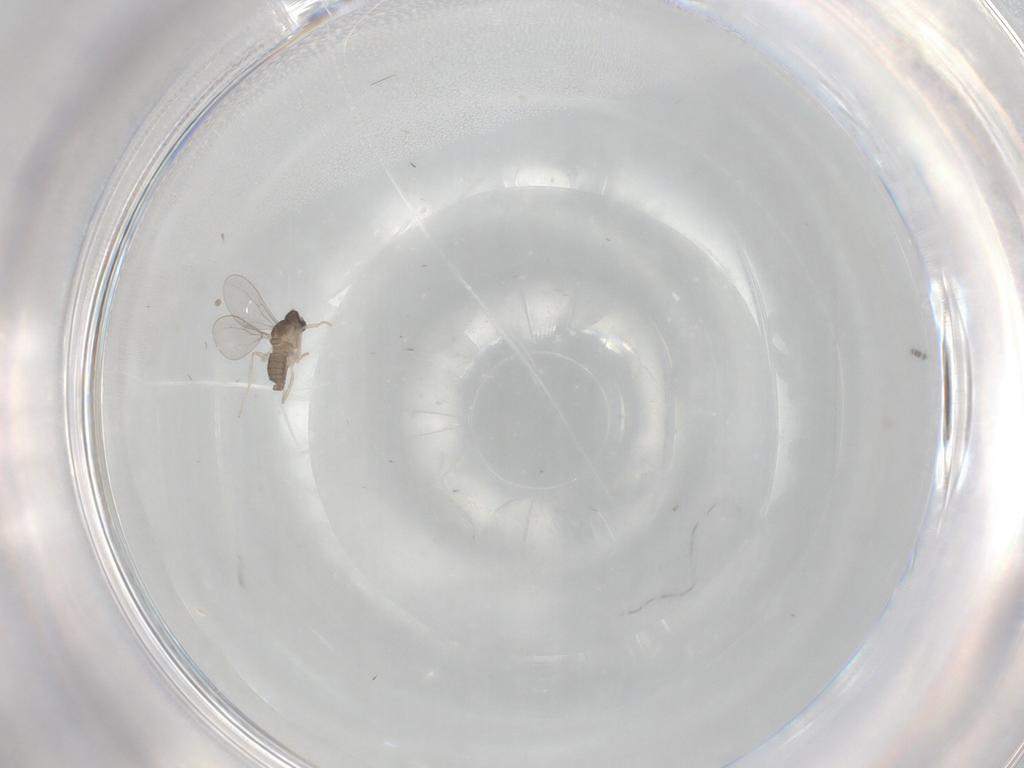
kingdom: Animalia
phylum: Arthropoda
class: Insecta
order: Diptera
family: Cecidomyiidae
